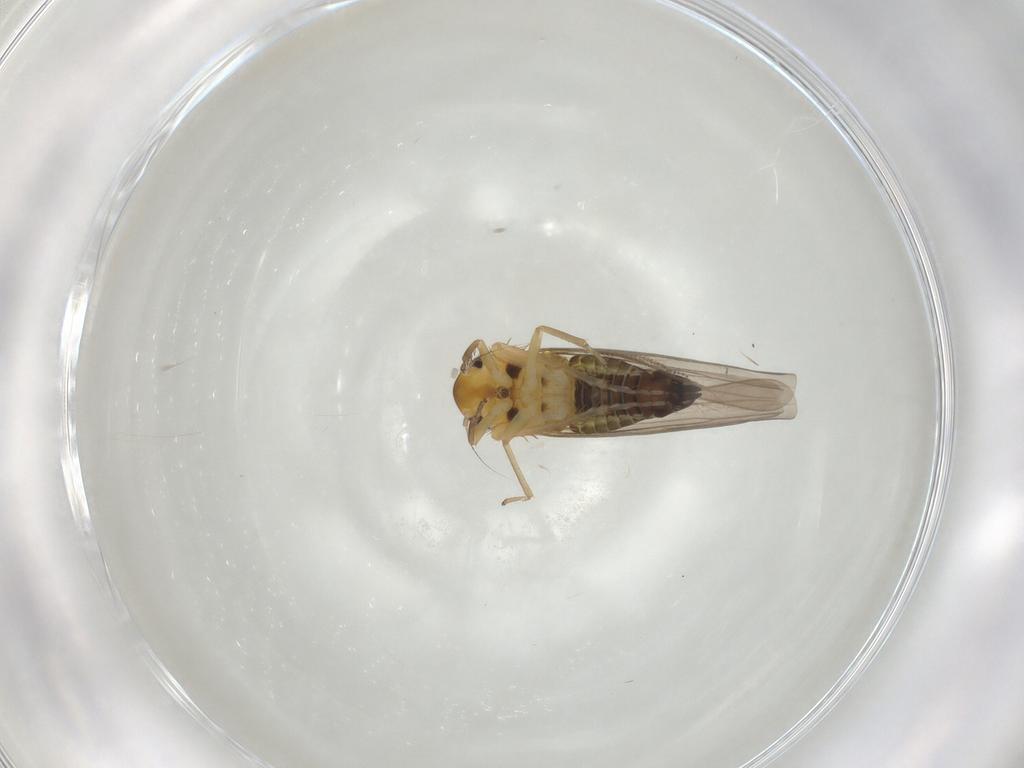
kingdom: Animalia
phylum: Arthropoda
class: Insecta
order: Hemiptera
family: Cicadellidae
